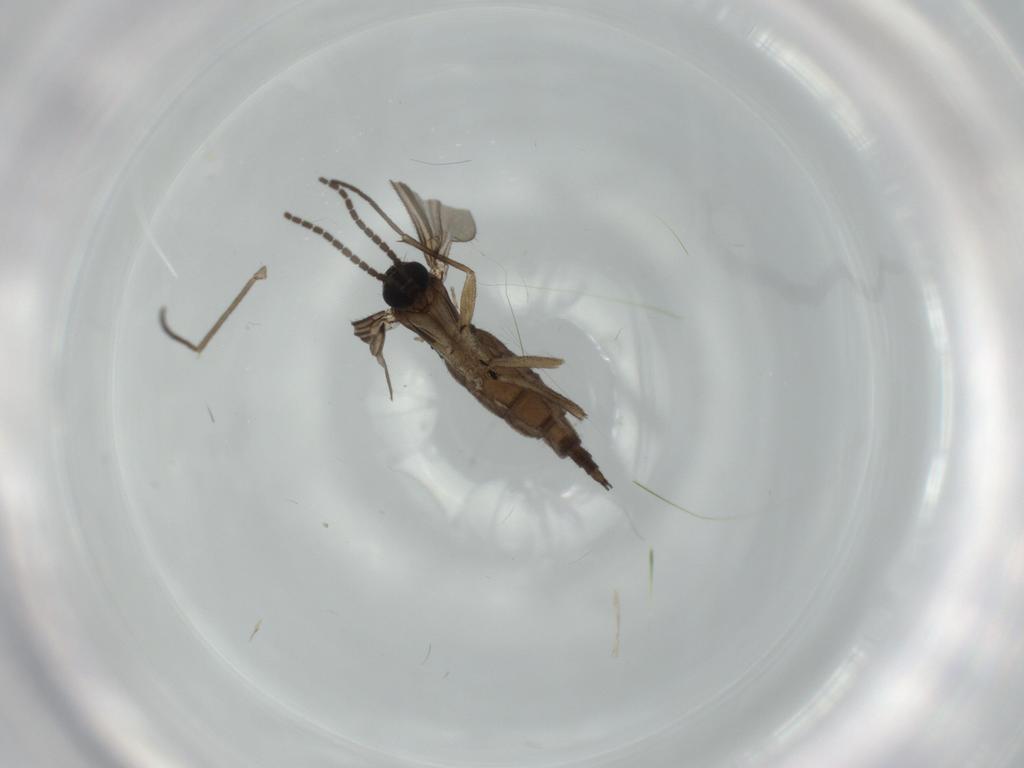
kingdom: Animalia
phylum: Arthropoda
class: Insecta
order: Diptera
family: Sciaridae
